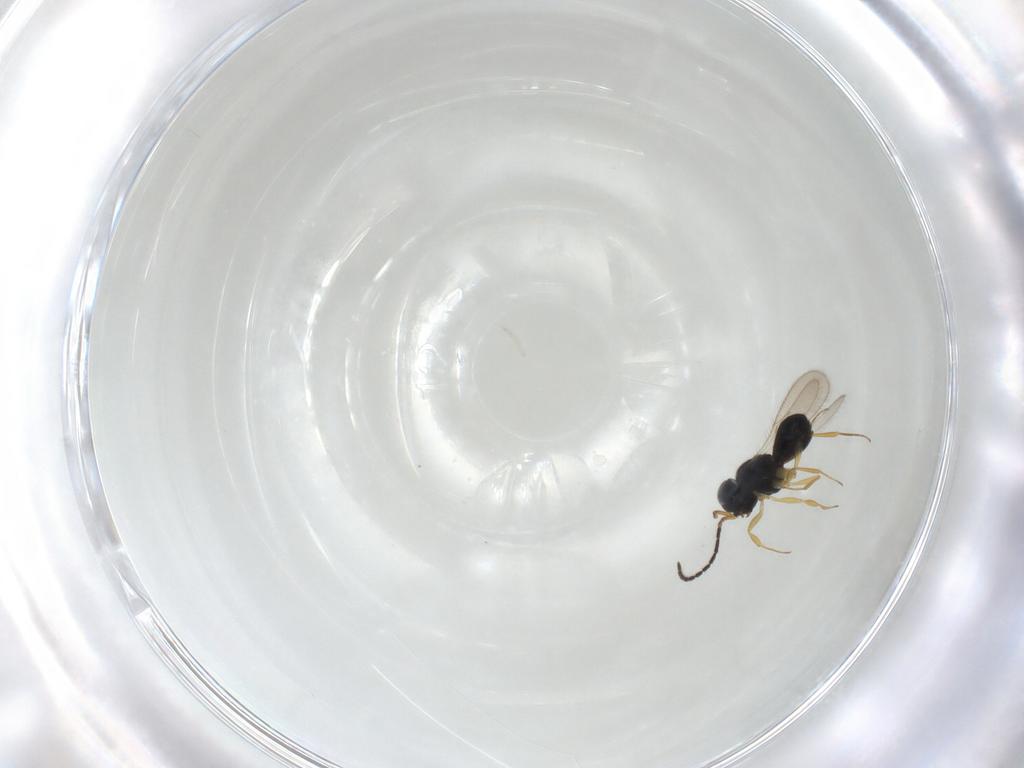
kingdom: Animalia
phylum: Arthropoda
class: Insecta
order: Hymenoptera
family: Scelionidae
